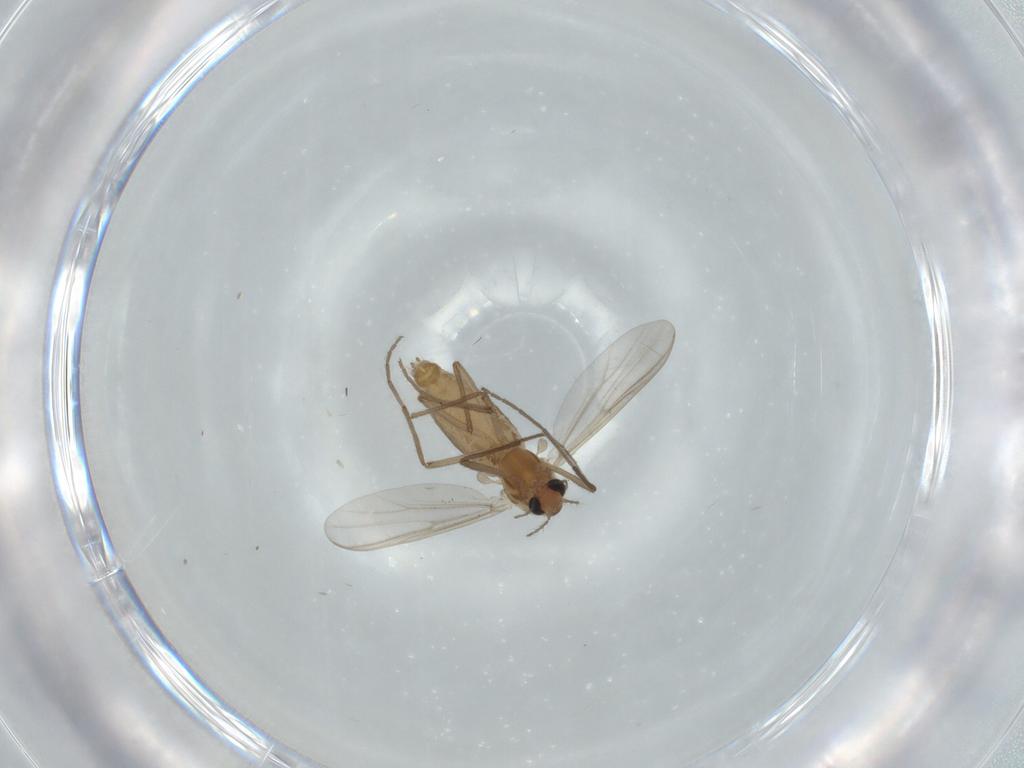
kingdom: Animalia
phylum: Arthropoda
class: Insecta
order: Diptera
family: Chironomidae
